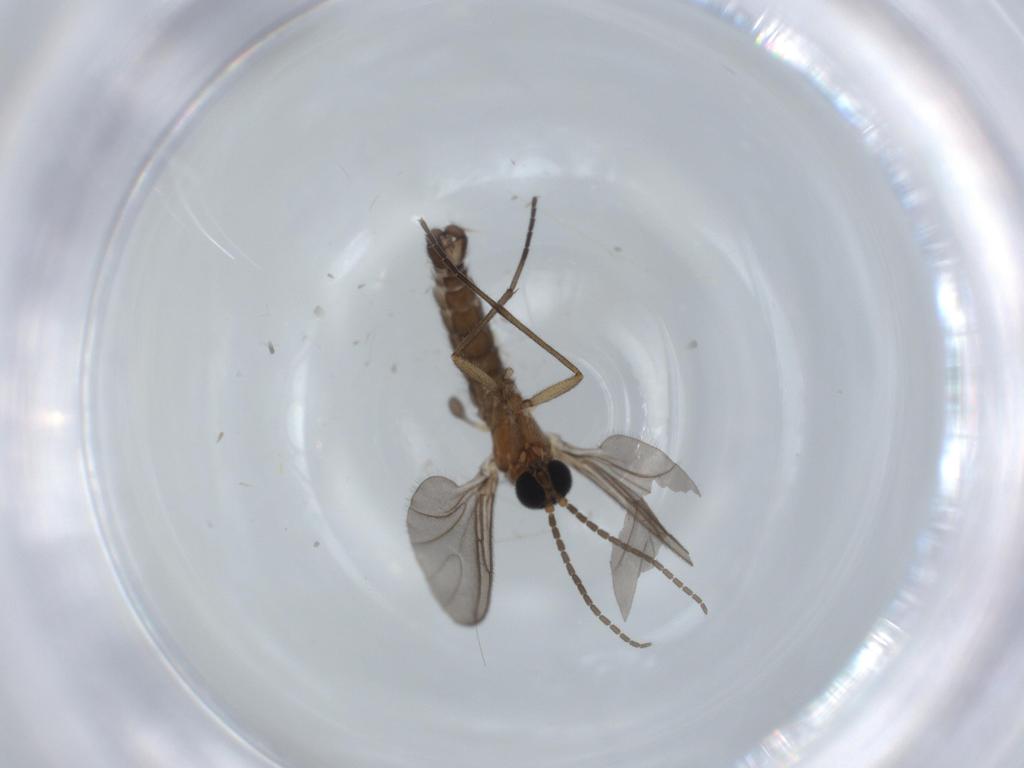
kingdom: Animalia
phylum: Arthropoda
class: Insecta
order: Diptera
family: Sciaridae
